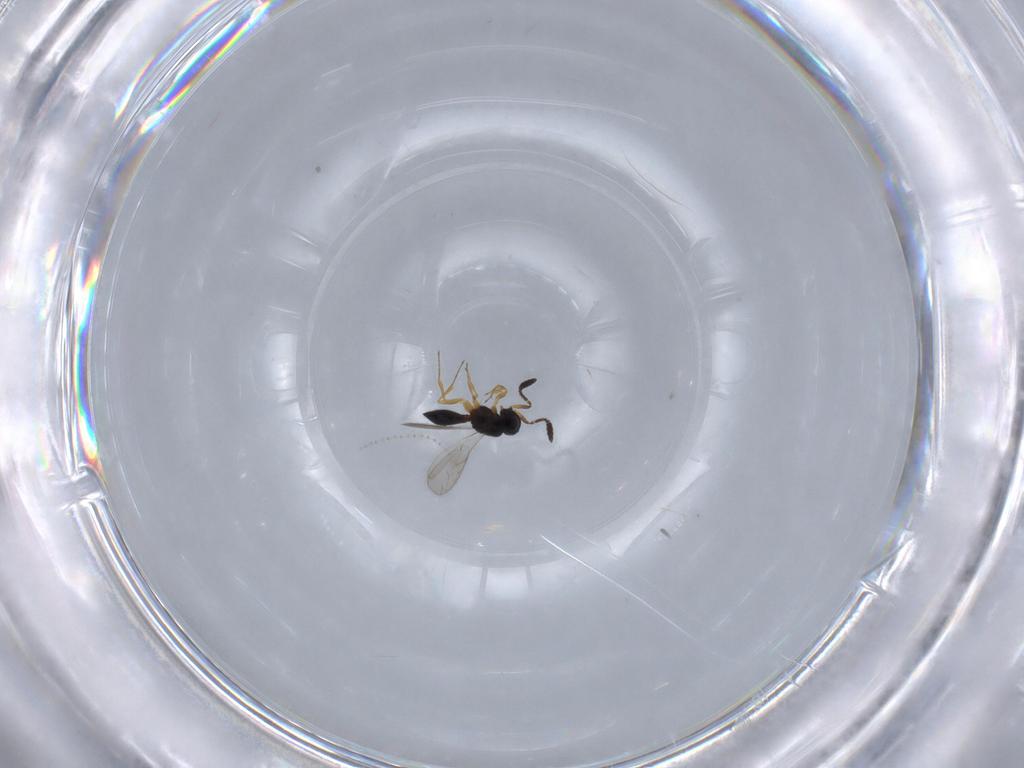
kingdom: Animalia
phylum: Arthropoda
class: Insecta
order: Hymenoptera
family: Scelionidae
